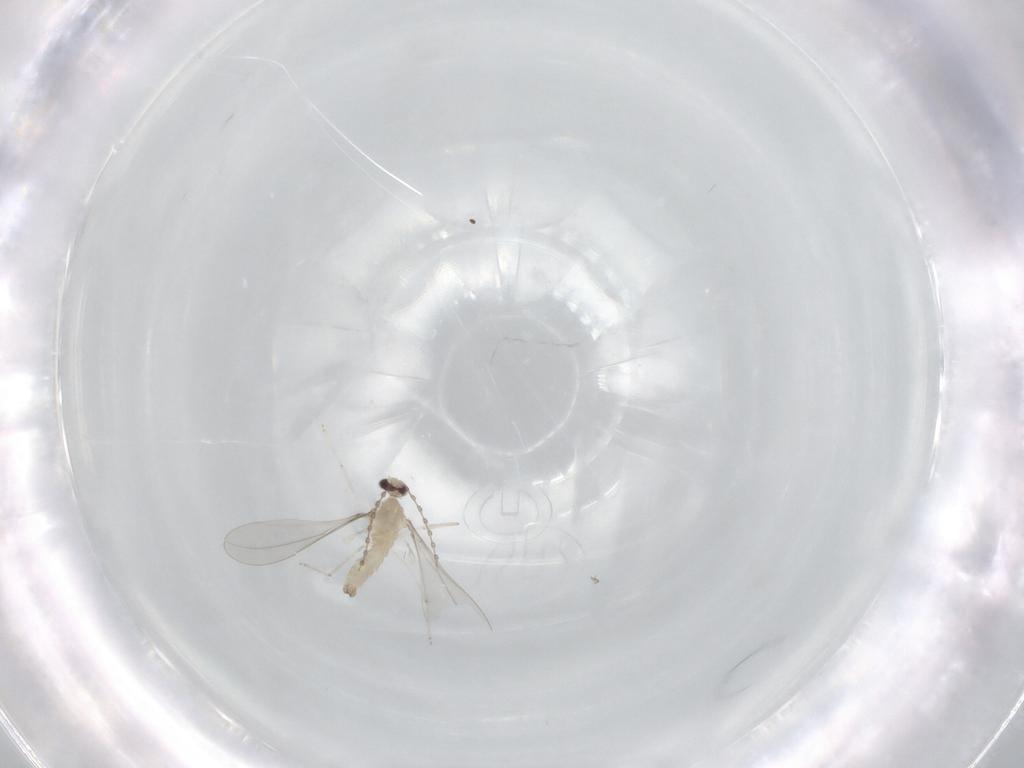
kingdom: Animalia
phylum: Arthropoda
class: Insecta
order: Diptera
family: Cecidomyiidae
